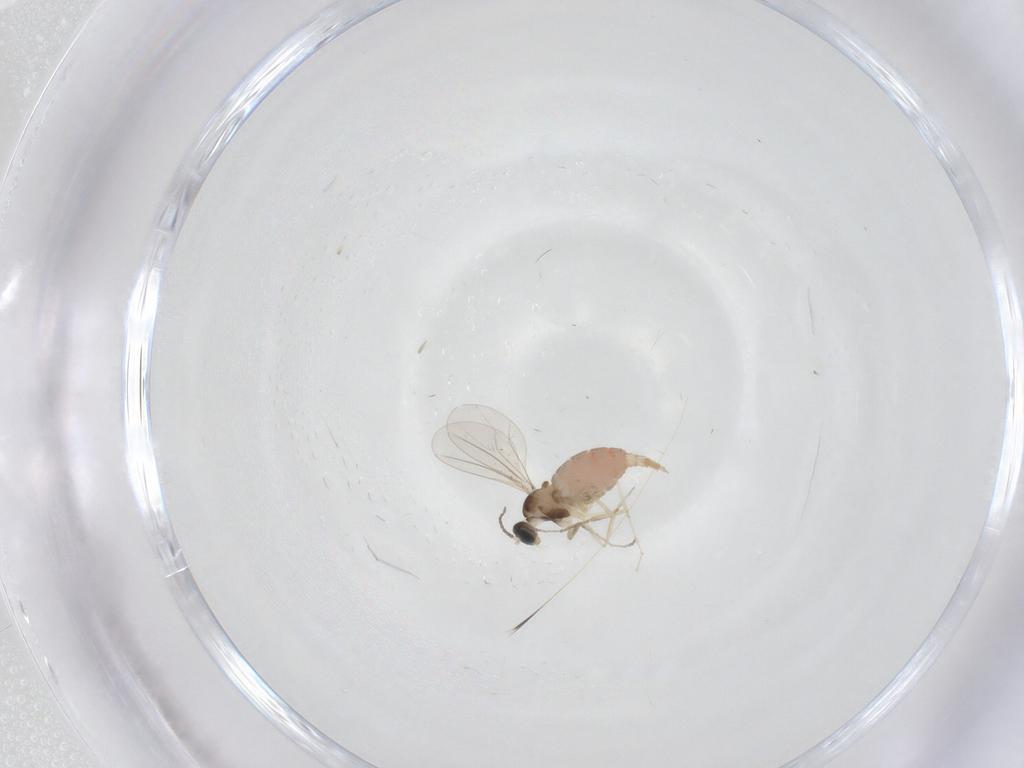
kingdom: Animalia
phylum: Arthropoda
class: Insecta
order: Diptera
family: Cecidomyiidae
